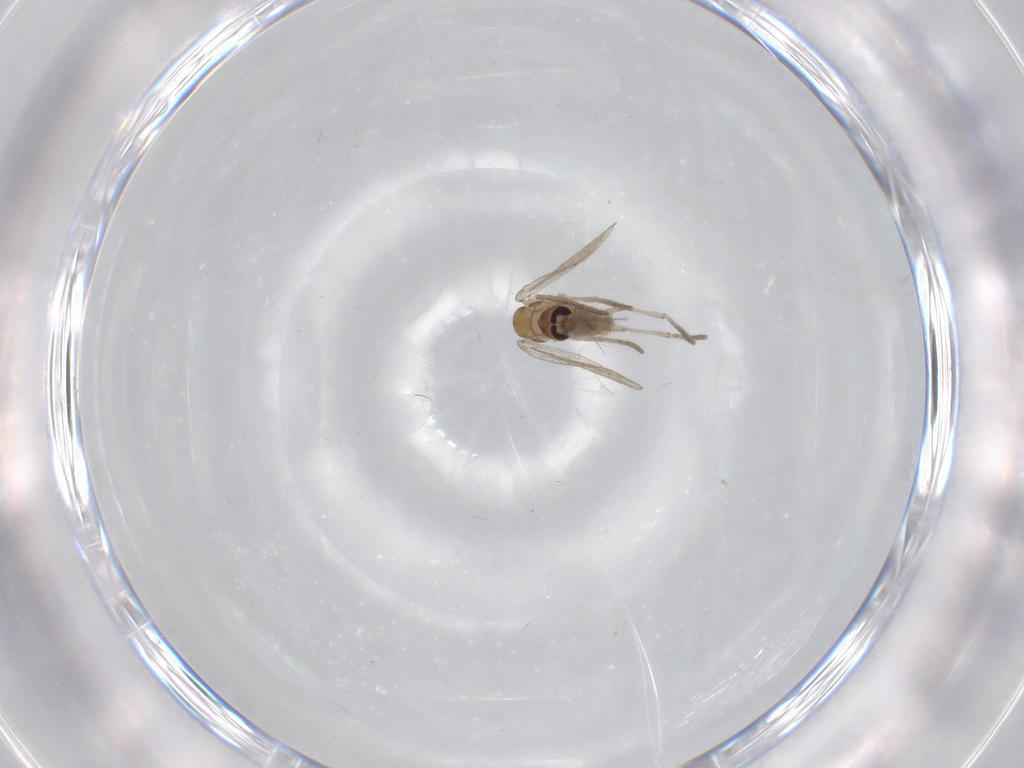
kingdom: Animalia
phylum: Arthropoda
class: Insecta
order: Diptera
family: Psychodidae
